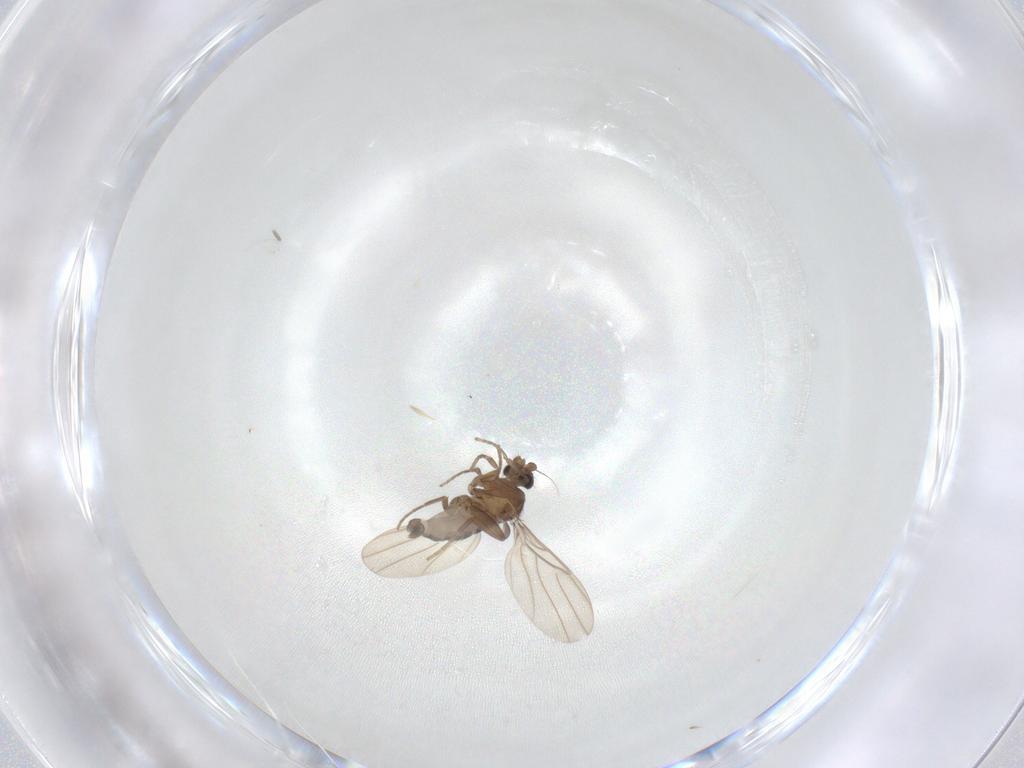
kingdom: Animalia
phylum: Arthropoda
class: Insecta
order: Diptera
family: Phoridae
